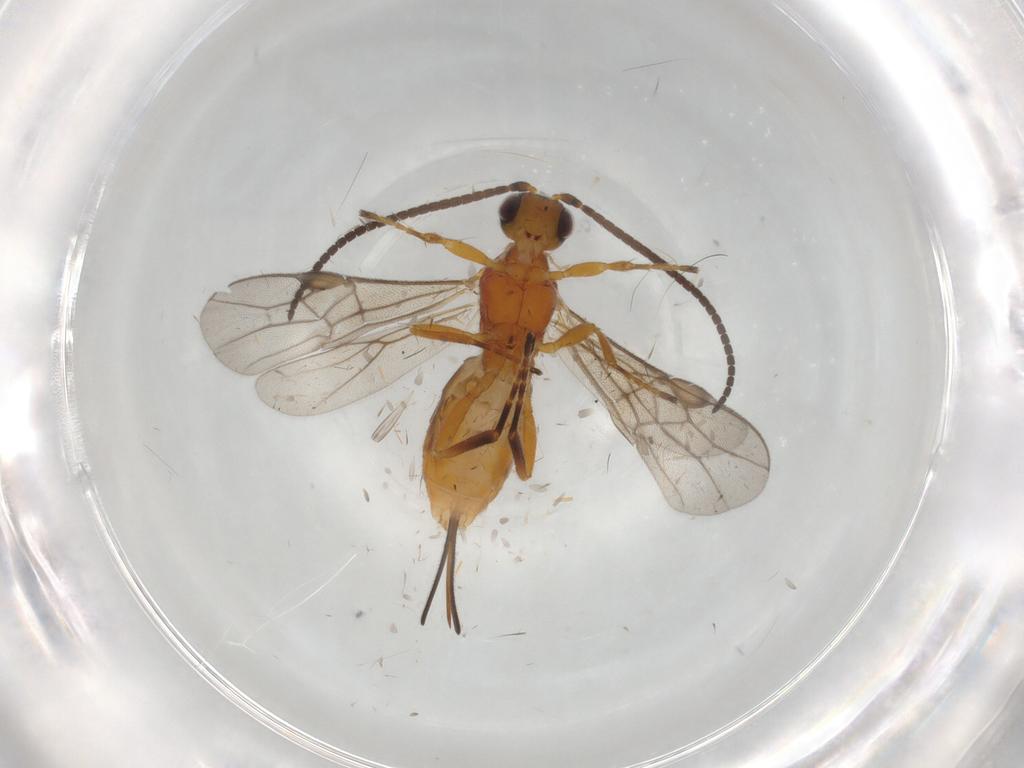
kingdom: Animalia
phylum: Arthropoda
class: Insecta
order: Hymenoptera
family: Braconidae
